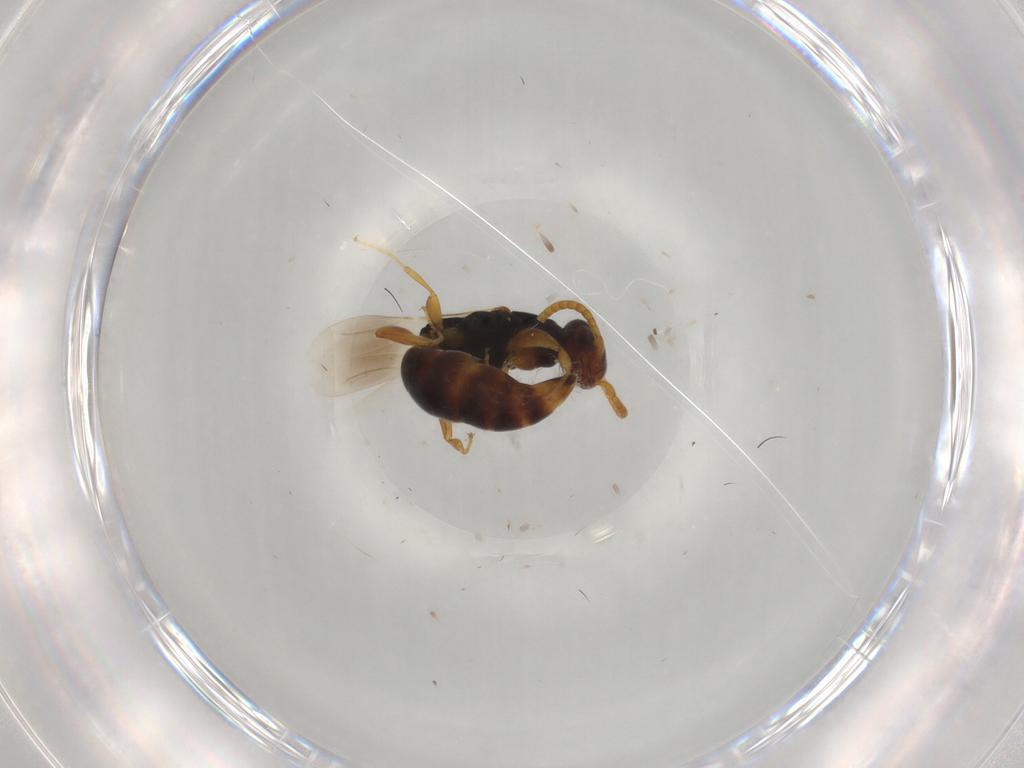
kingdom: Animalia
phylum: Arthropoda
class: Insecta
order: Hymenoptera
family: Bethylidae
